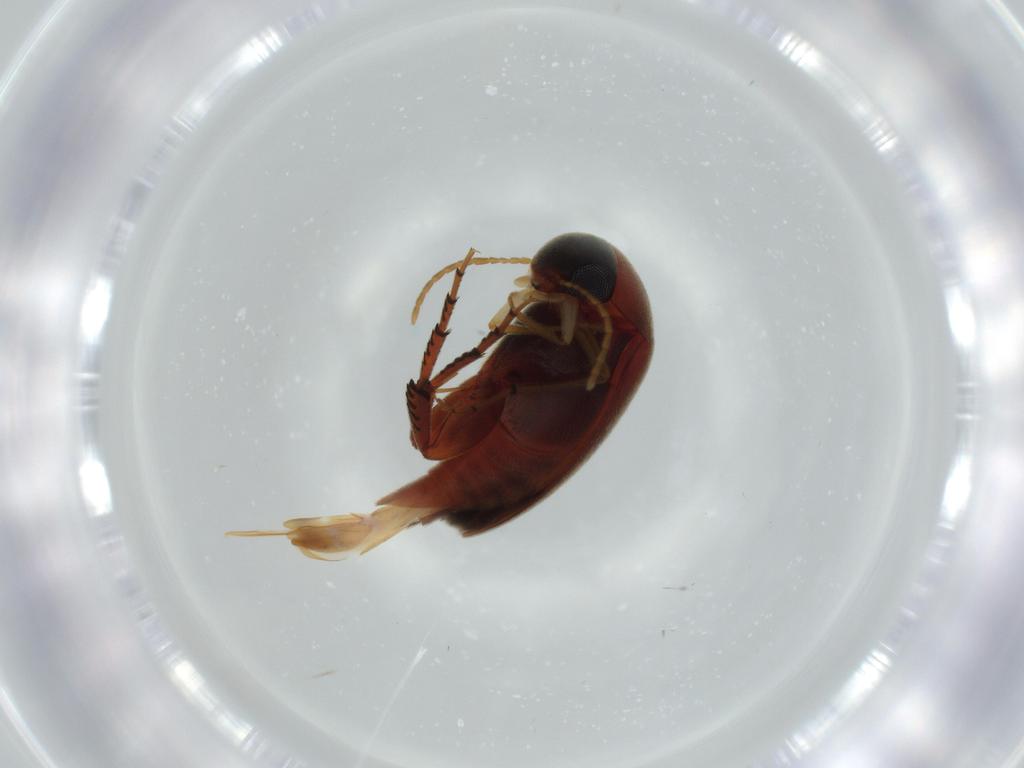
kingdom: Animalia
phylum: Arthropoda
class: Insecta
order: Coleoptera
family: Mordellidae
